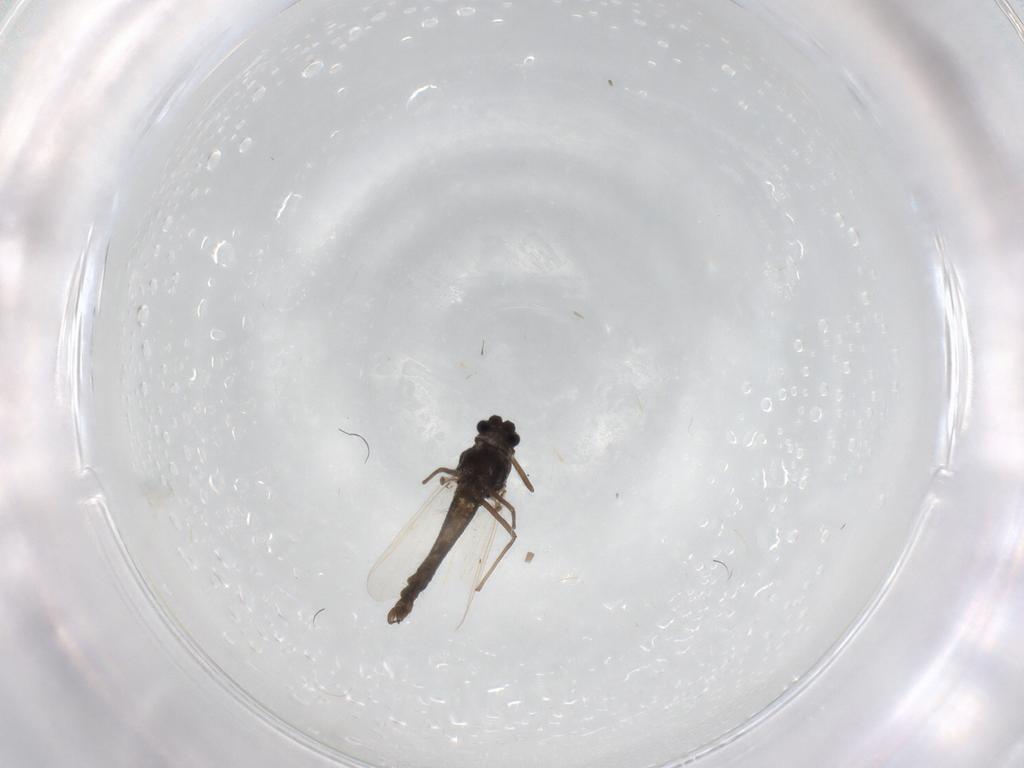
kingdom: Animalia
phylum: Arthropoda
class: Insecta
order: Diptera
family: Chironomidae
